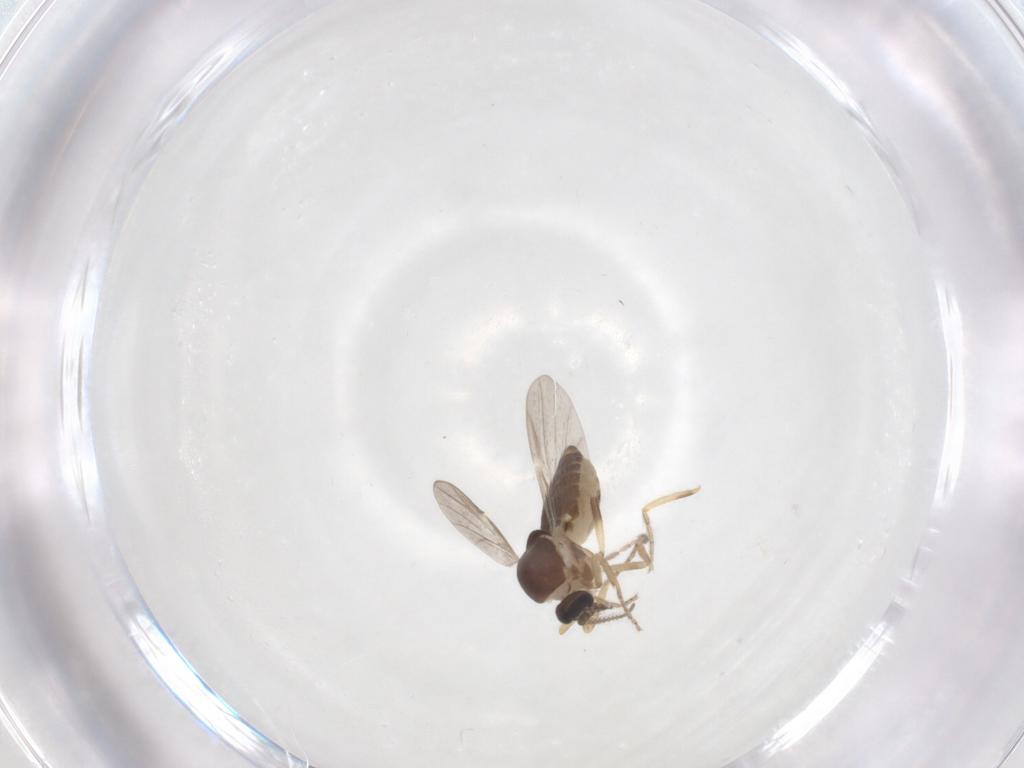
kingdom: Animalia
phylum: Arthropoda
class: Insecta
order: Diptera
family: Ceratopogonidae
